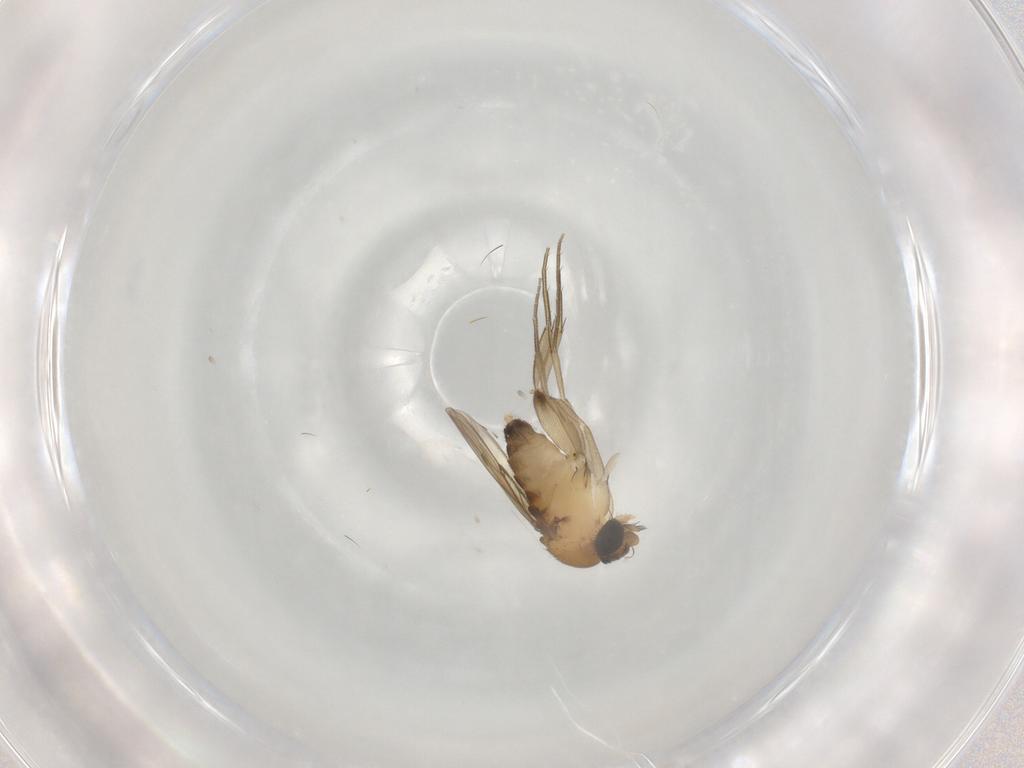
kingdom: Animalia
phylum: Arthropoda
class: Insecta
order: Diptera
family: Phoridae
